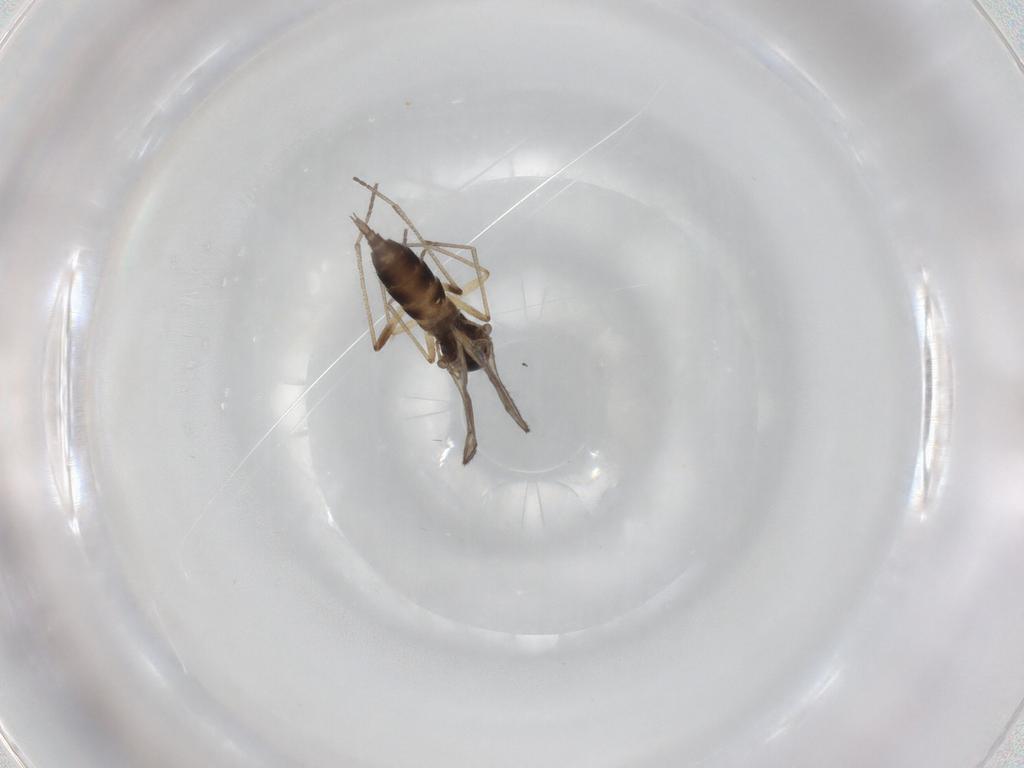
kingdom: Animalia
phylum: Arthropoda
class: Insecta
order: Diptera
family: Sciaridae
